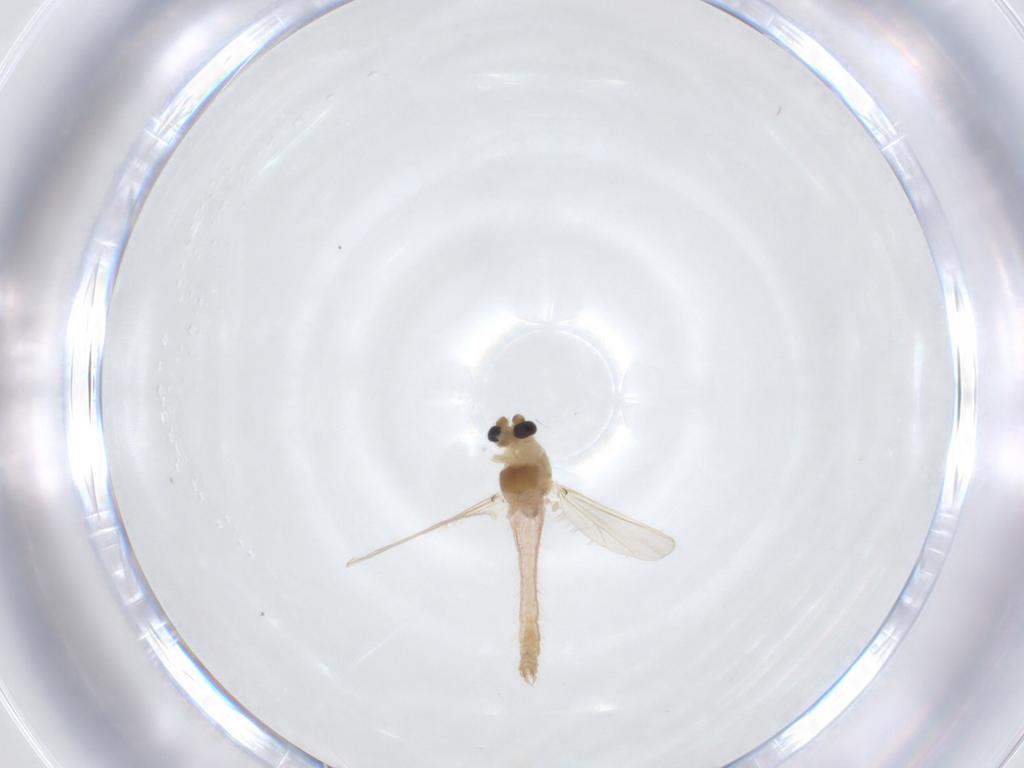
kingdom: Animalia
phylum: Arthropoda
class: Insecta
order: Diptera
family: Chironomidae
